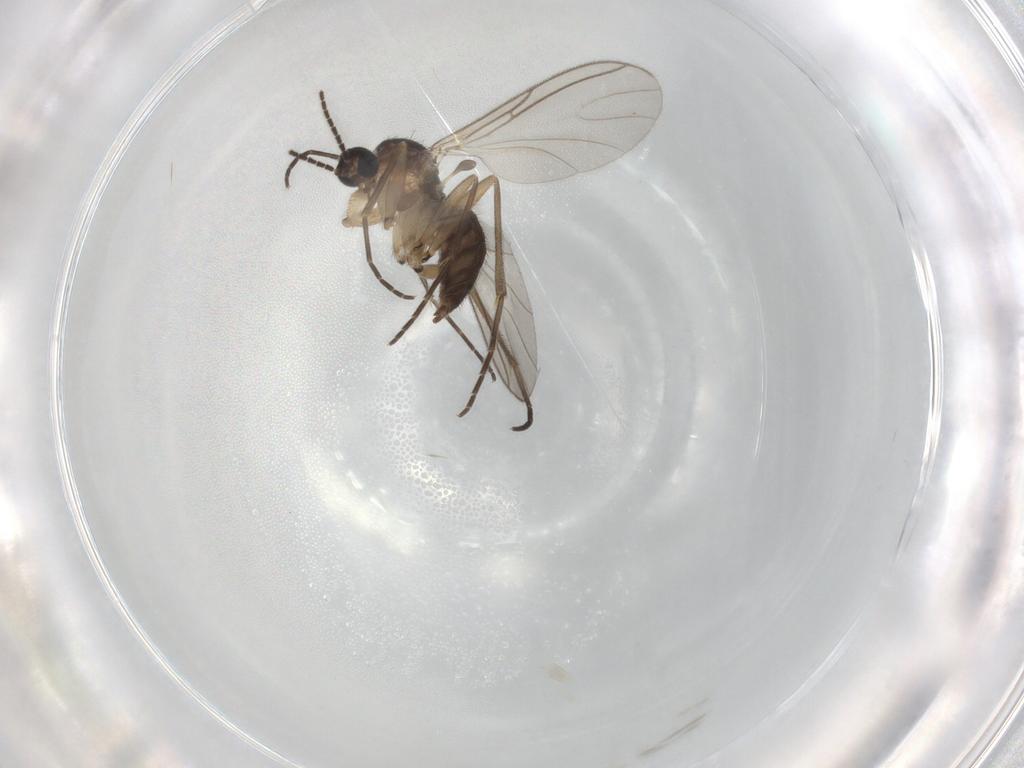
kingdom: Animalia
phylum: Arthropoda
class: Insecta
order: Diptera
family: Sciaridae
